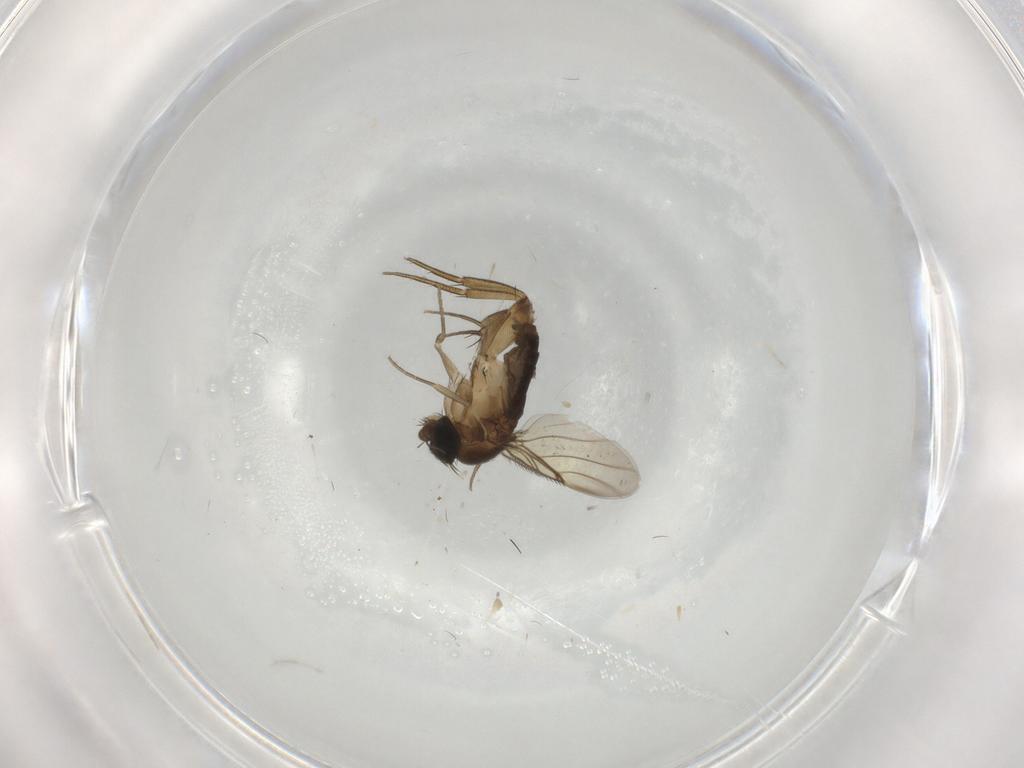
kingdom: Animalia
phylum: Arthropoda
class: Insecta
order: Diptera
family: Phoridae
